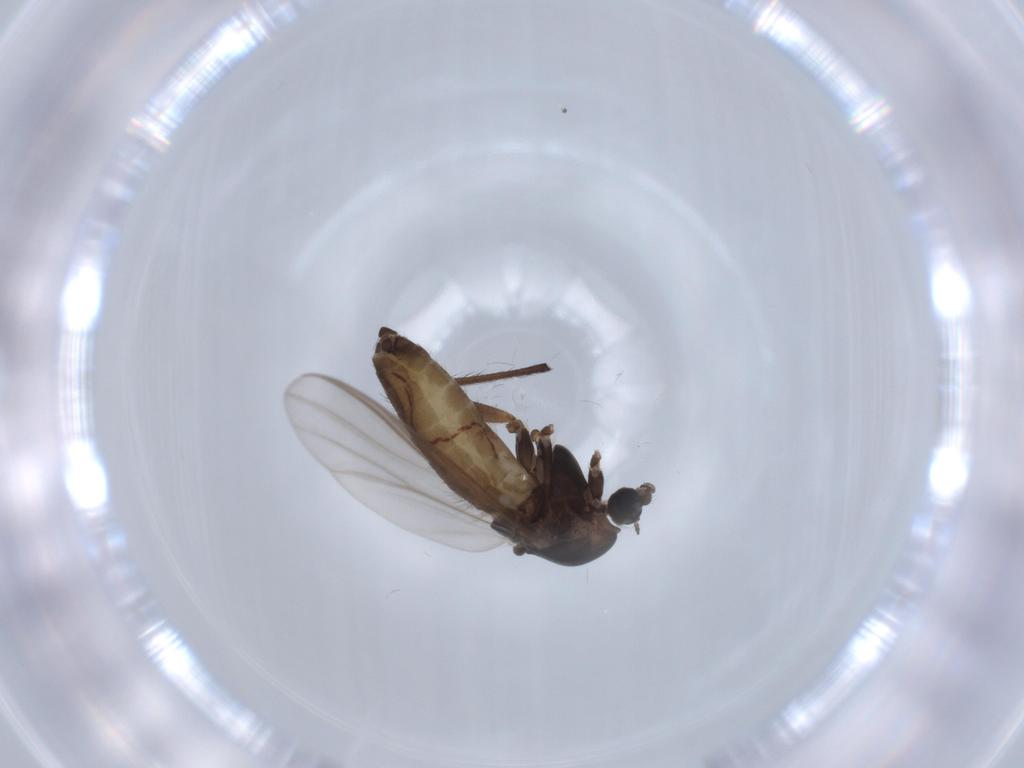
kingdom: Animalia
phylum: Arthropoda
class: Insecta
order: Diptera
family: Chironomidae
